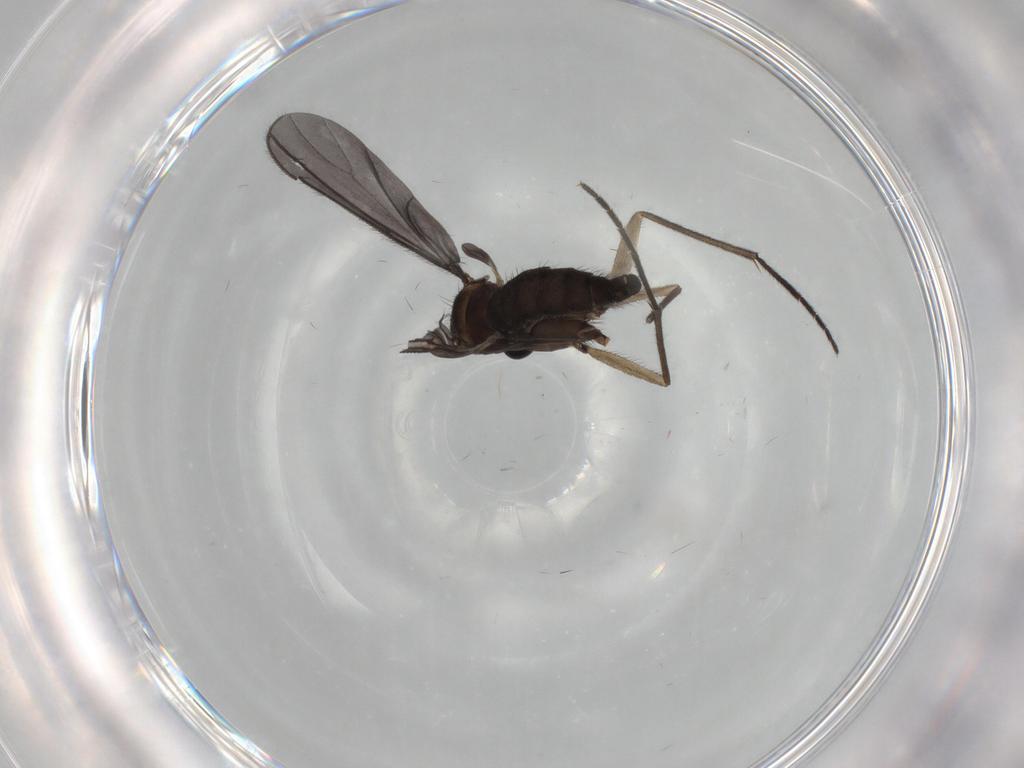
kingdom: Animalia
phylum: Arthropoda
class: Insecta
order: Diptera
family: Sciaridae
